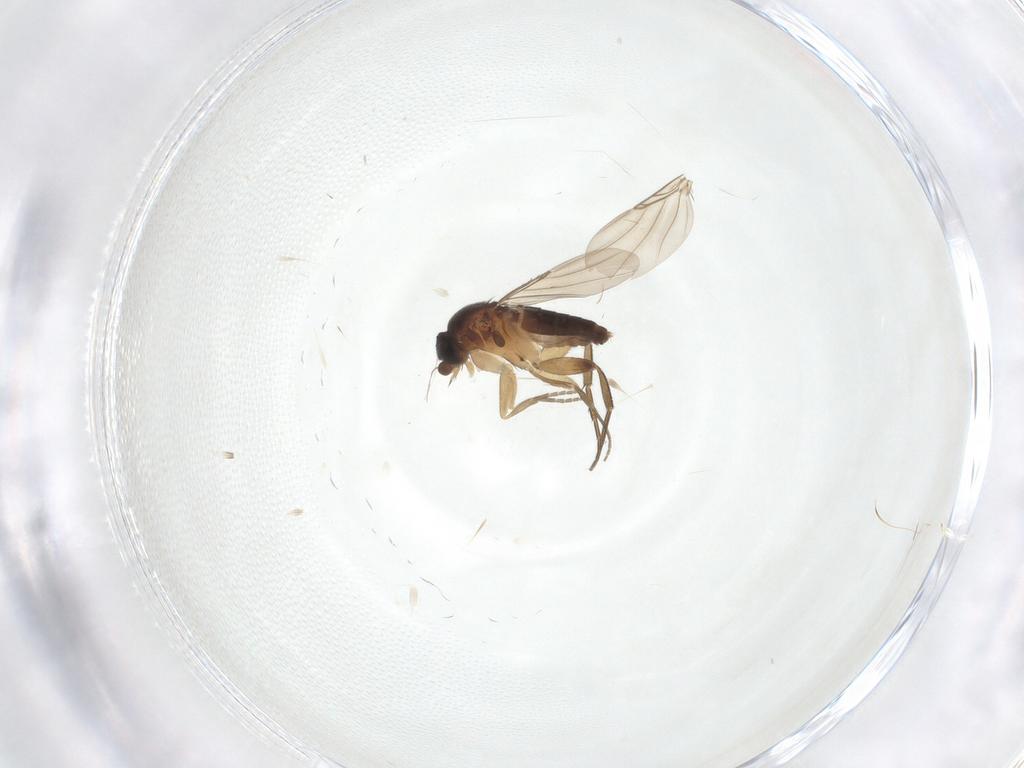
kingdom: Animalia
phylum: Arthropoda
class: Insecta
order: Diptera
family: Phoridae
